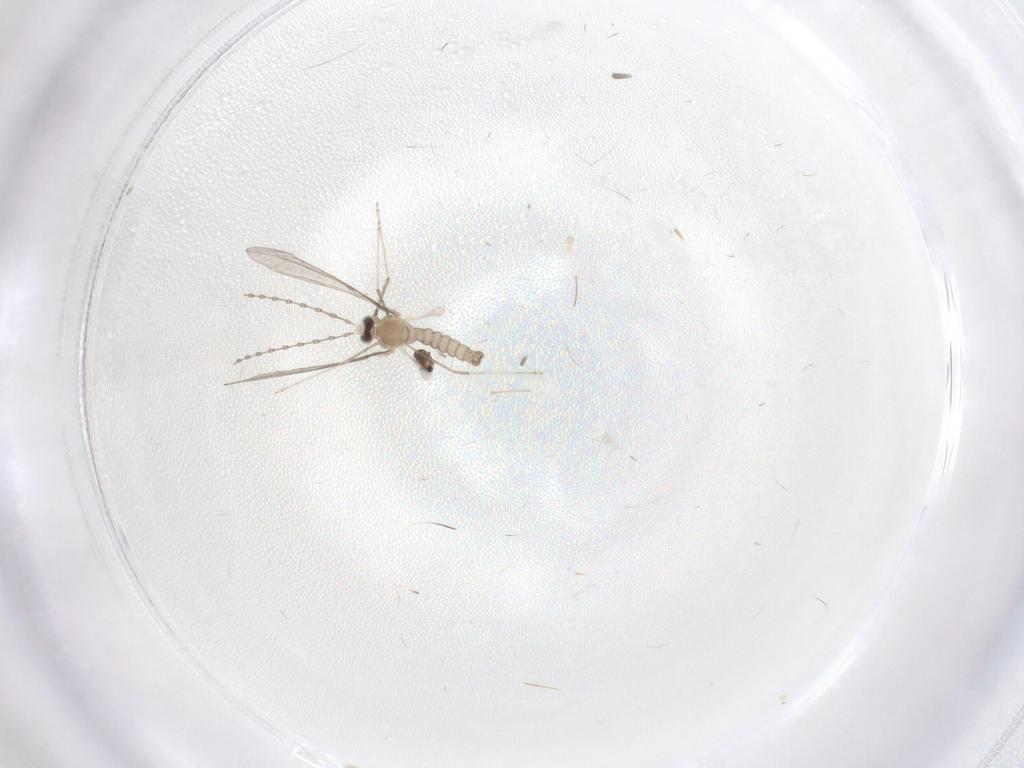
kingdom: Animalia
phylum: Arthropoda
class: Insecta
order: Diptera
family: Cecidomyiidae
